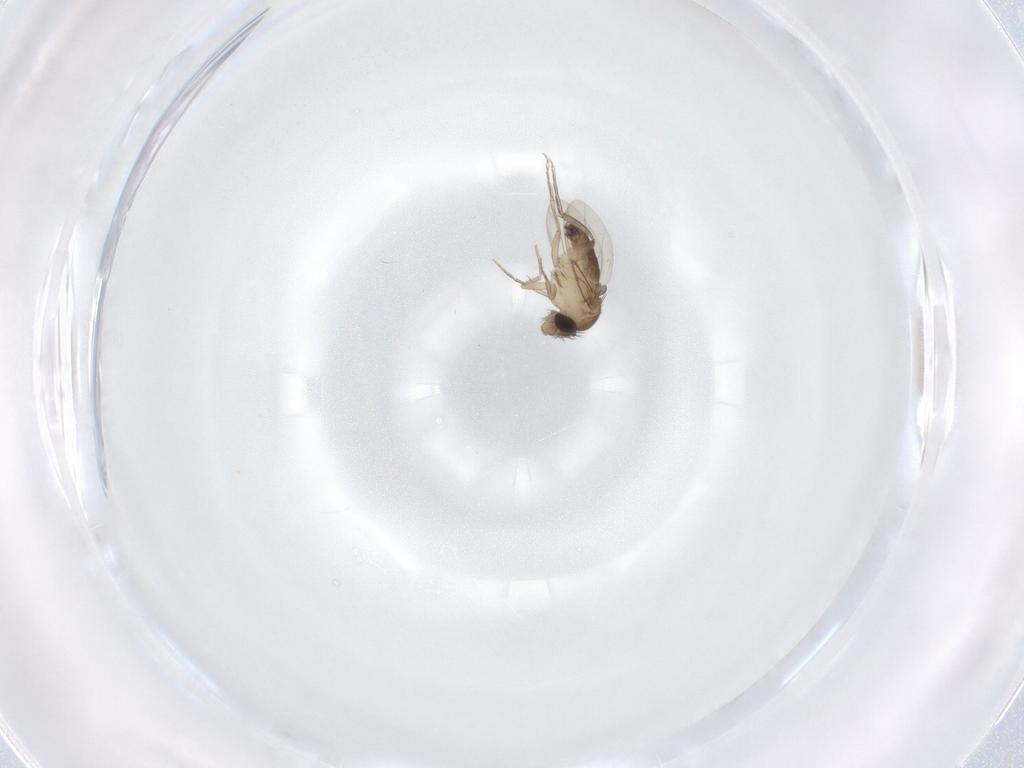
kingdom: Animalia
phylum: Arthropoda
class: Insecta
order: Diptera
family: Phoridae
